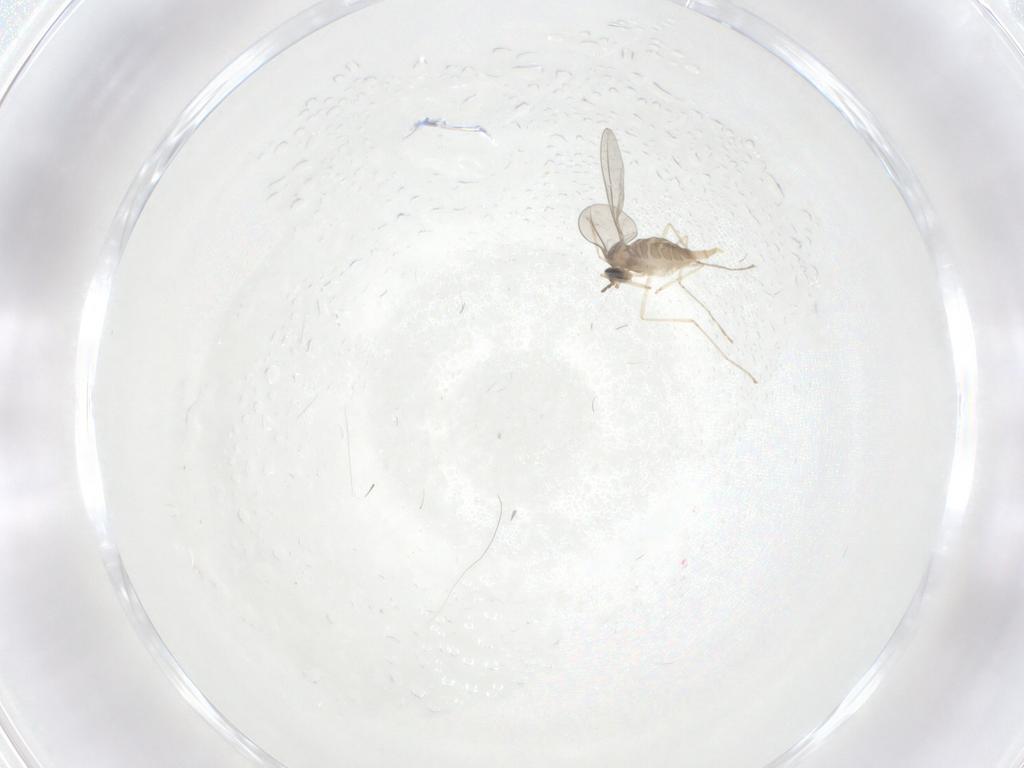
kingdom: Animalia
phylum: Arthropoda
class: Insecta
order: Diptera
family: Cecidomyiidae
